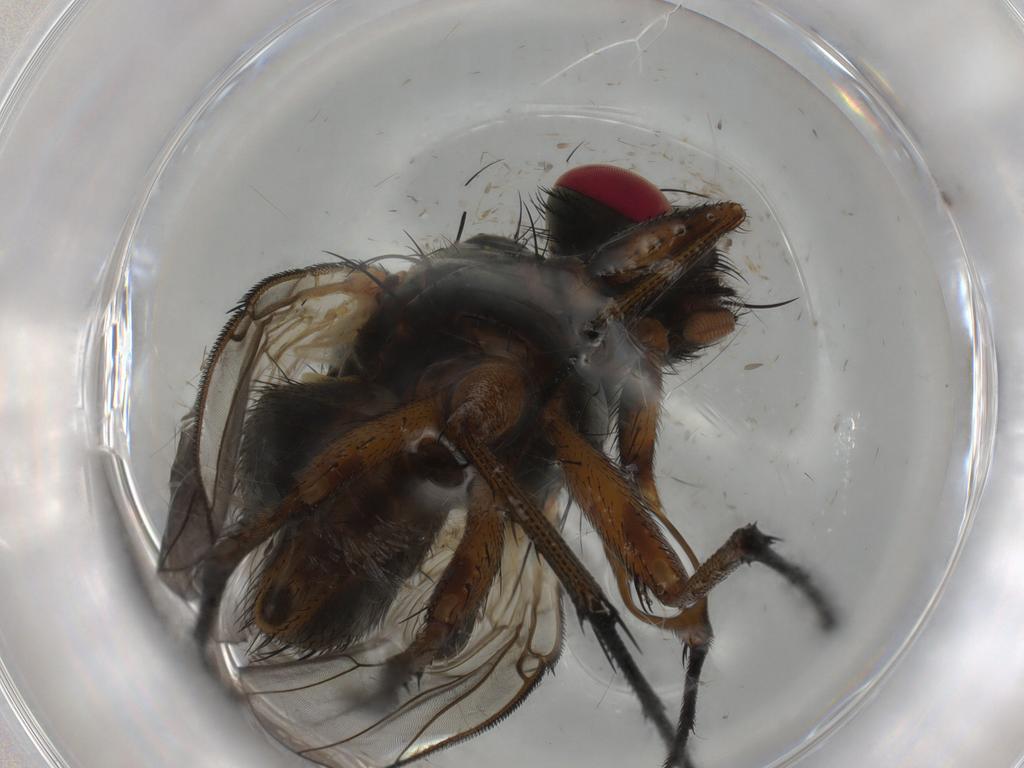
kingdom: Animalia
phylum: Arthropoda
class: Insecta
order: Diptera
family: Muscidae
